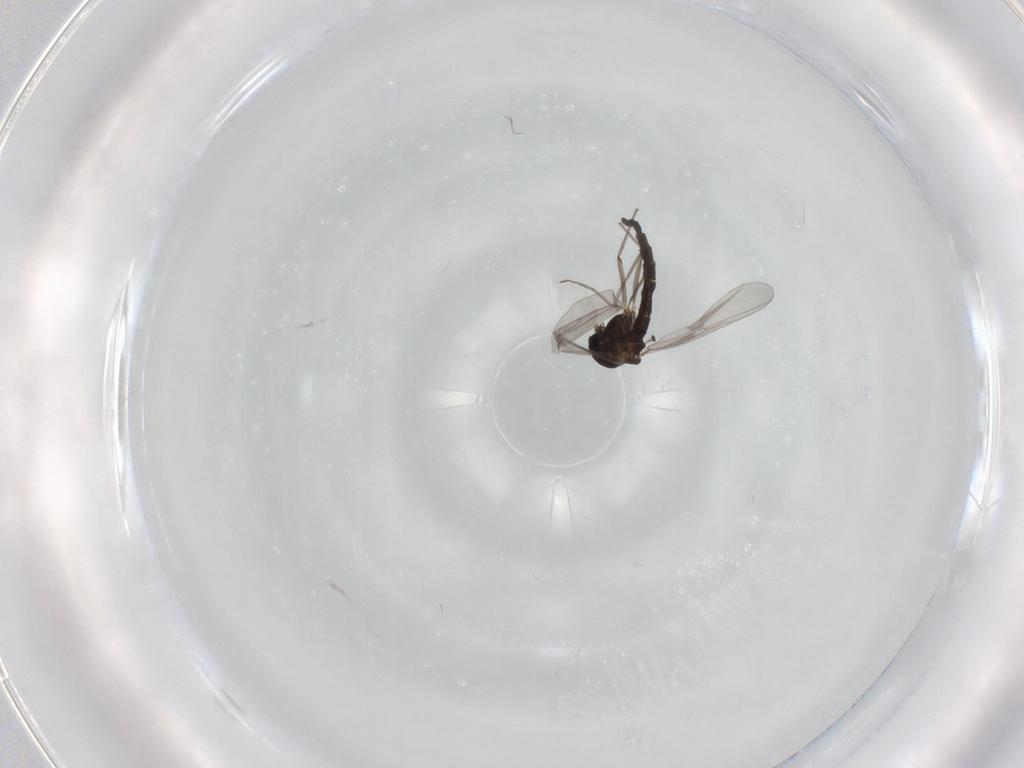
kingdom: Animalia
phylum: Arthropoda
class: Insecta
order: Diptera
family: Chironomidae
